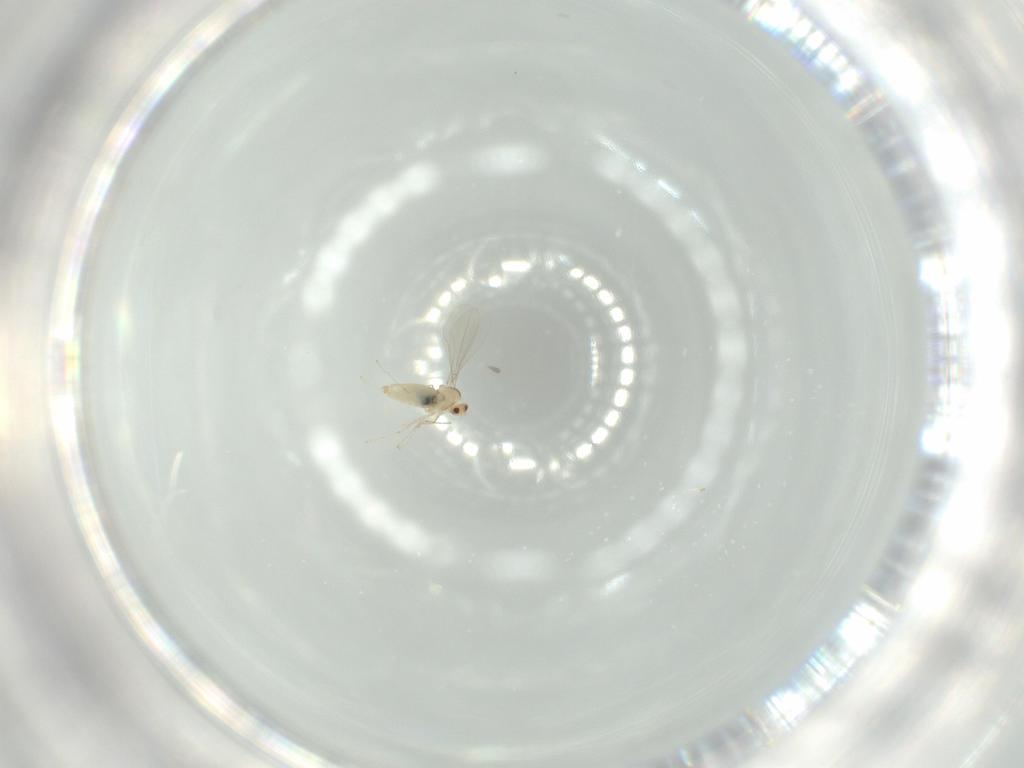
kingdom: Animalia
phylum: Arthropoda
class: Insecta
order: Diptera
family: Cecidomyiidae
